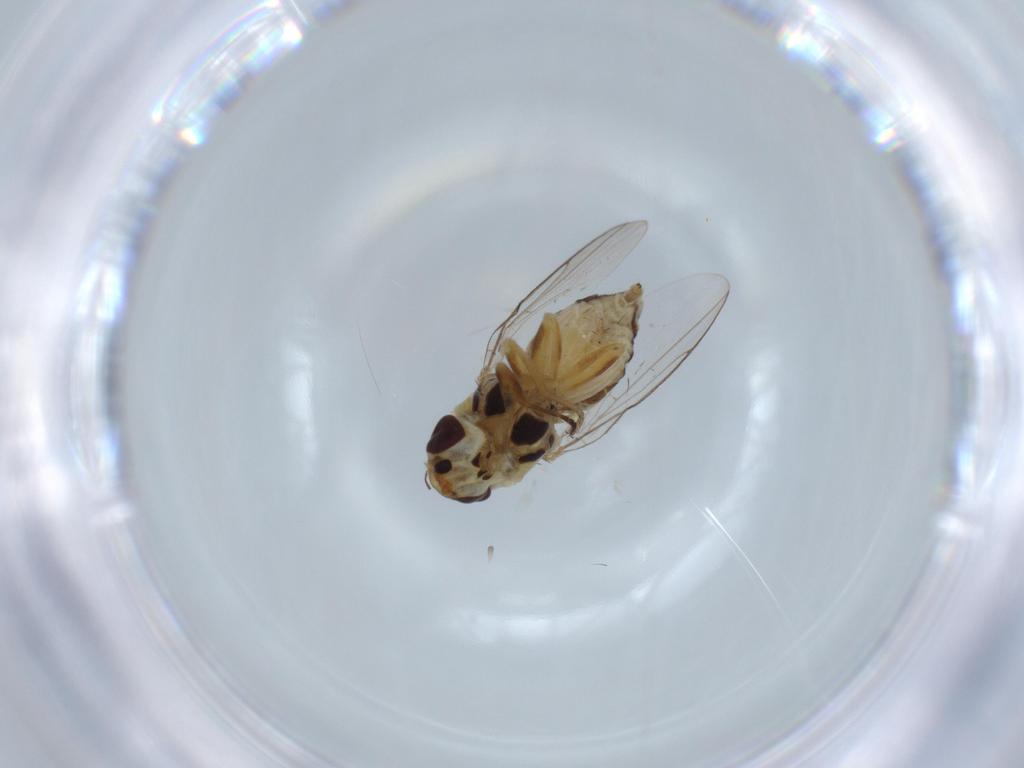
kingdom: Animalia
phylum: Arthropoda
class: Insecta
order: Diptera
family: Chloropidae
